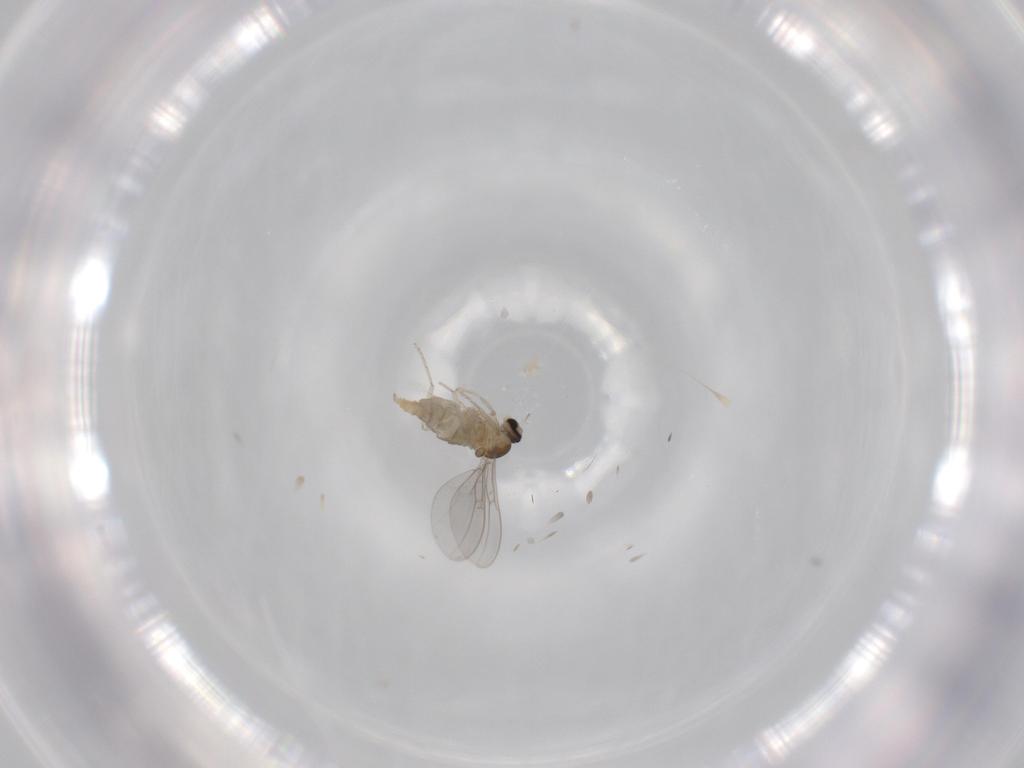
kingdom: Animalia
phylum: Arthropoda
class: Insecta
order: Diptera
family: Cecidomyiidae
